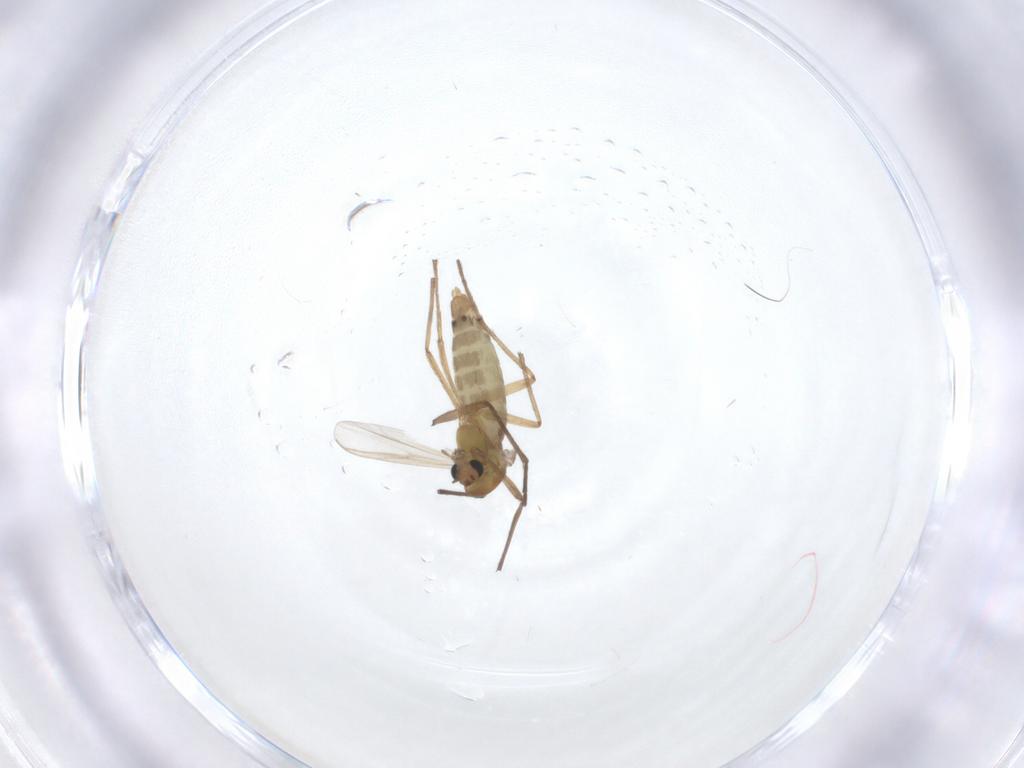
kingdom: Animalia
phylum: Arthropoda
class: Insecta
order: Diptera
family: Chironomidae
